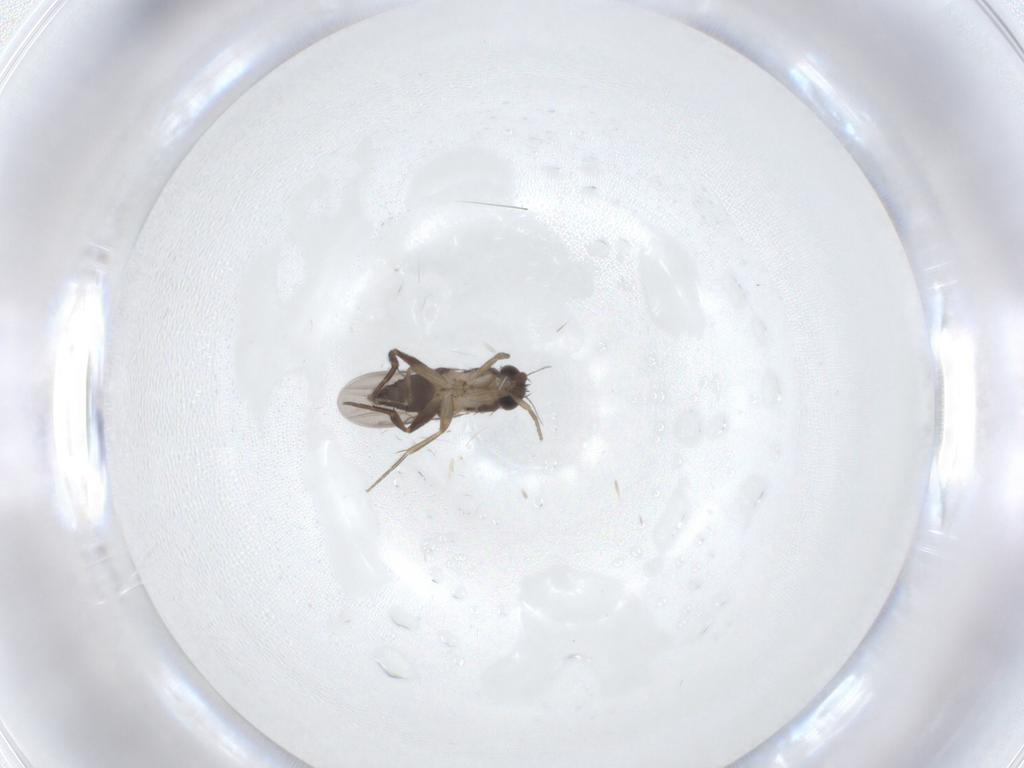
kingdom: Animalia
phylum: Arthropoda
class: Insecta
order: Diptera
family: Phoridae
